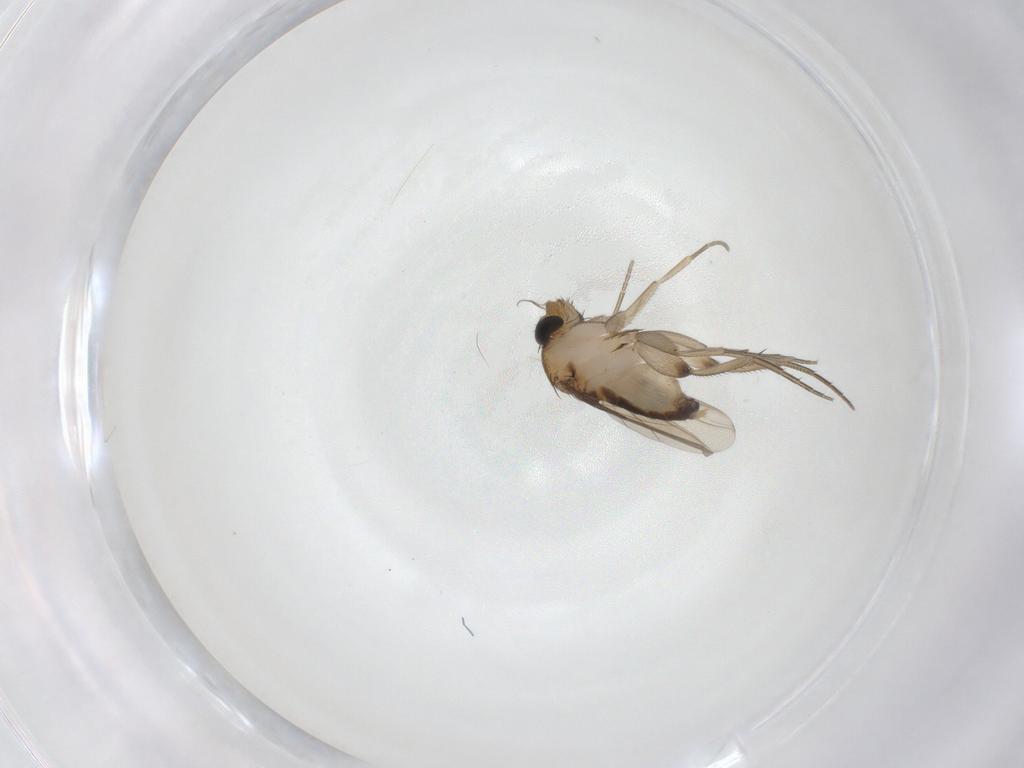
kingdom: Animalia
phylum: Arthropoda
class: Insecta
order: Diptera
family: Phoridae
